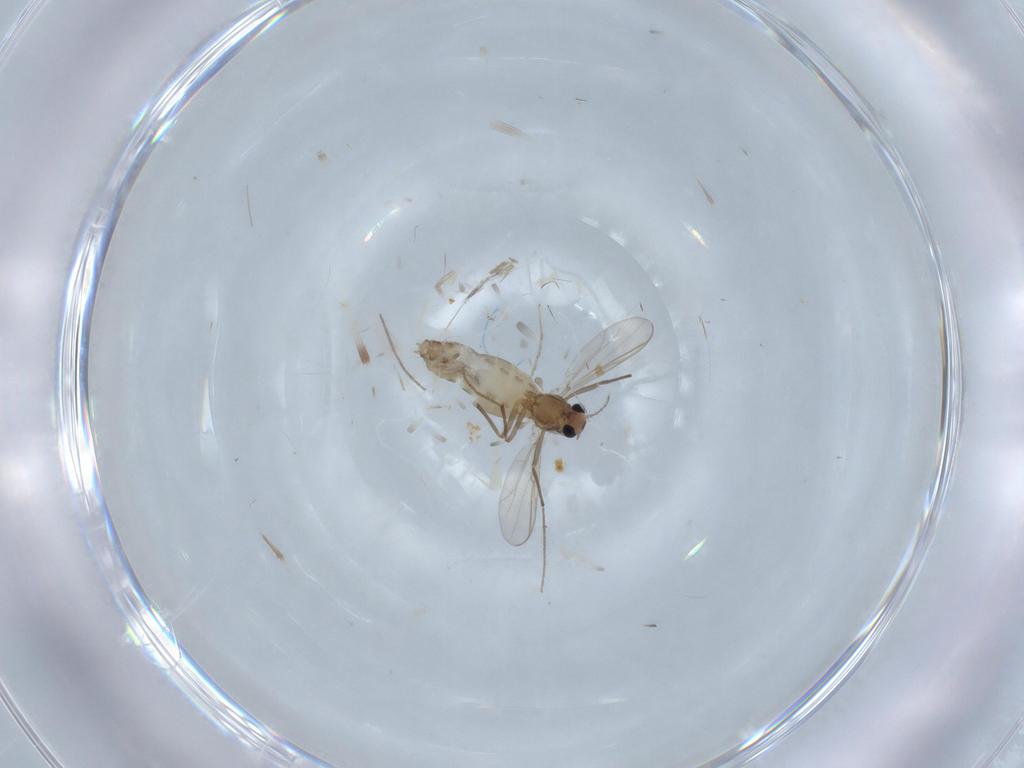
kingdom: Animalia
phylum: Arthropoda
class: Insecta
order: Diptera
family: Chironomidae
